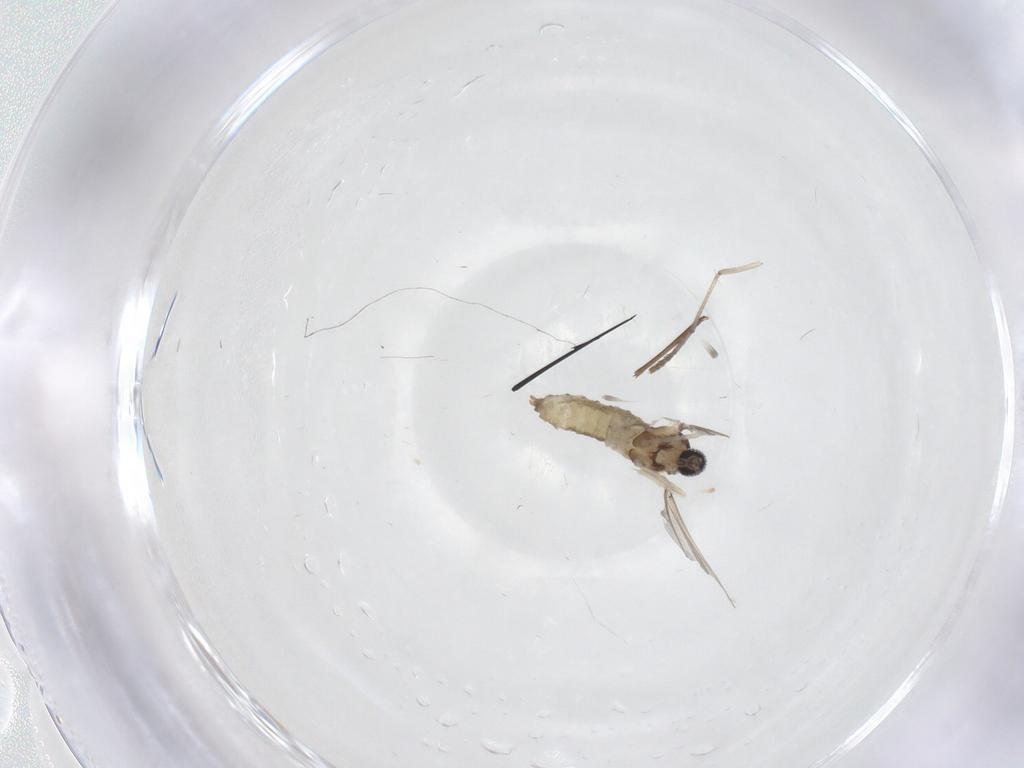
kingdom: Animalia
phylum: Arthropoda
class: Insecta
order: Diptera
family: Cecidomyiidae
